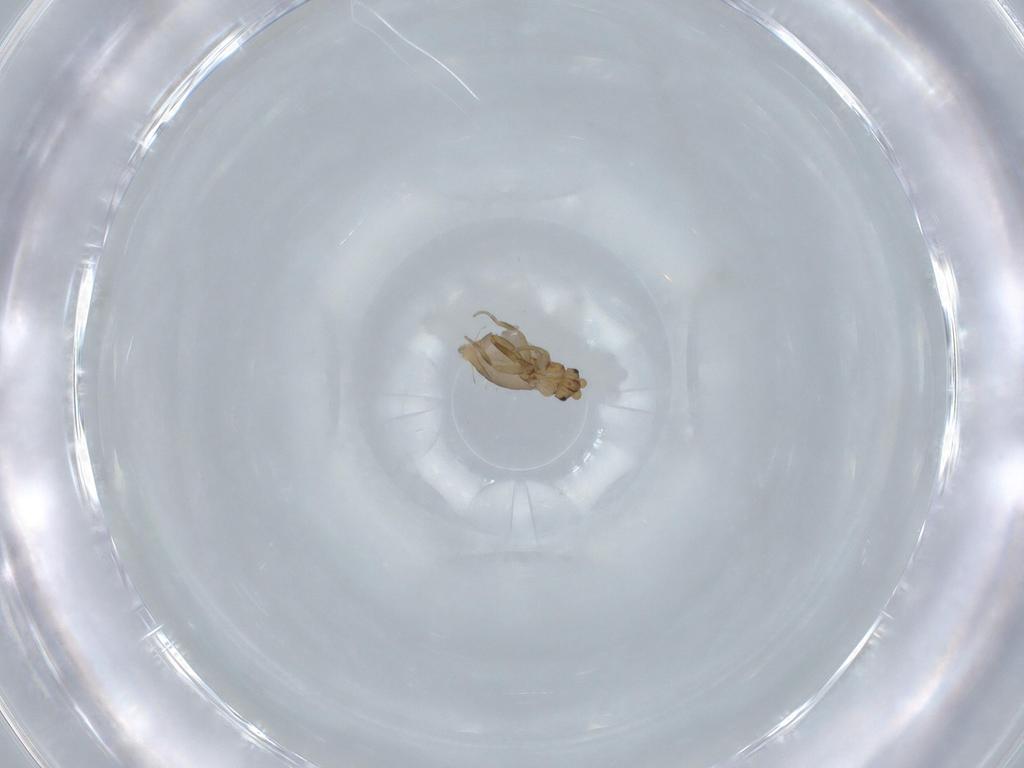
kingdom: Animalia
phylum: Arthropoda
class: Insecta
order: Diptera
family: Phoridae
